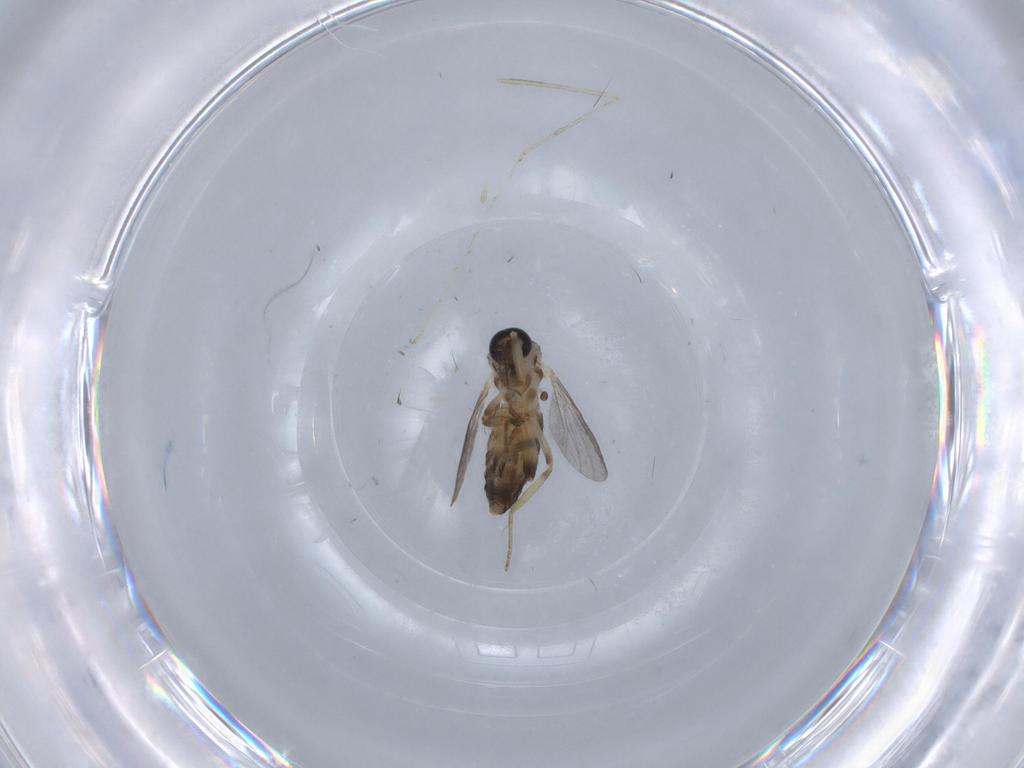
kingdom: Animalia
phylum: Arthropoda
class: Insecta
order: Diptera
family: Ceratopogonidae
